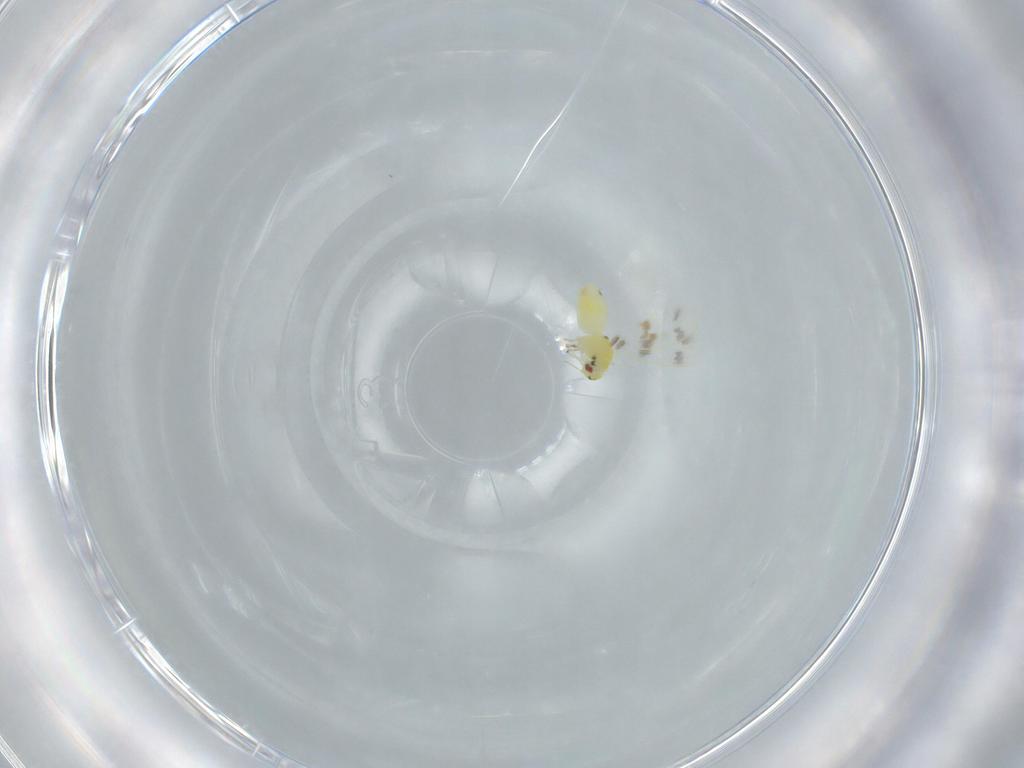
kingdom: Animalia
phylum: Arthropoda
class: Insecta
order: Hemiptera
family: Aleyrodidae
